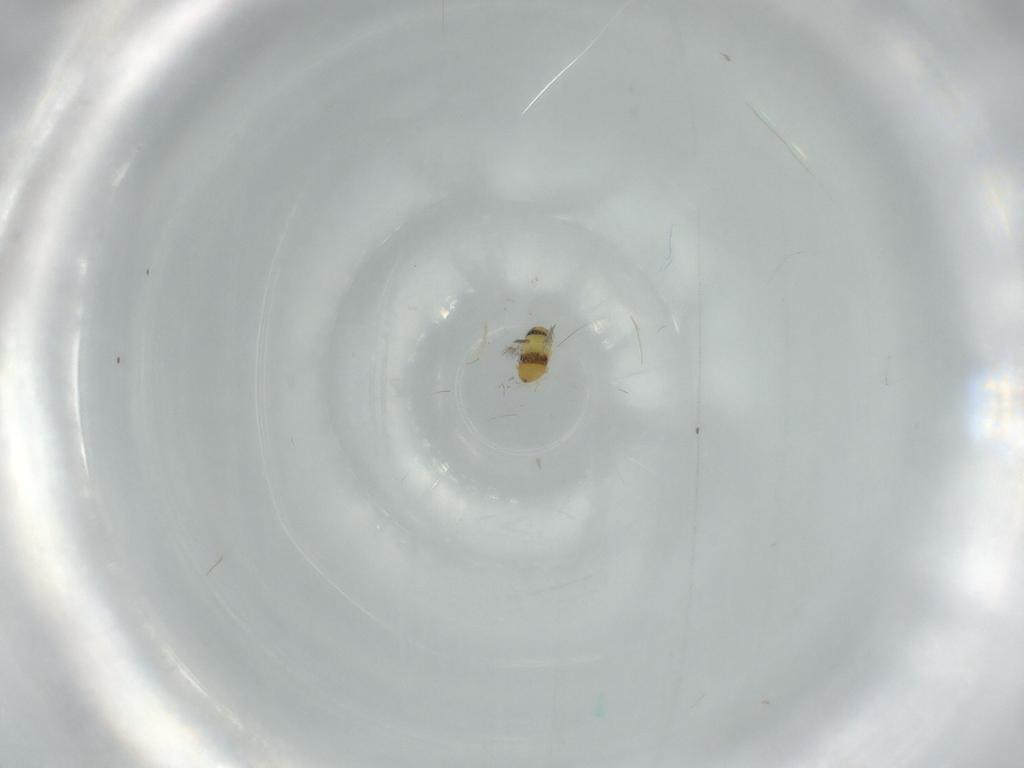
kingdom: Animalia
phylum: Arthropoda
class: Insecta
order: Hymenoptera
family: Signiphoridae
